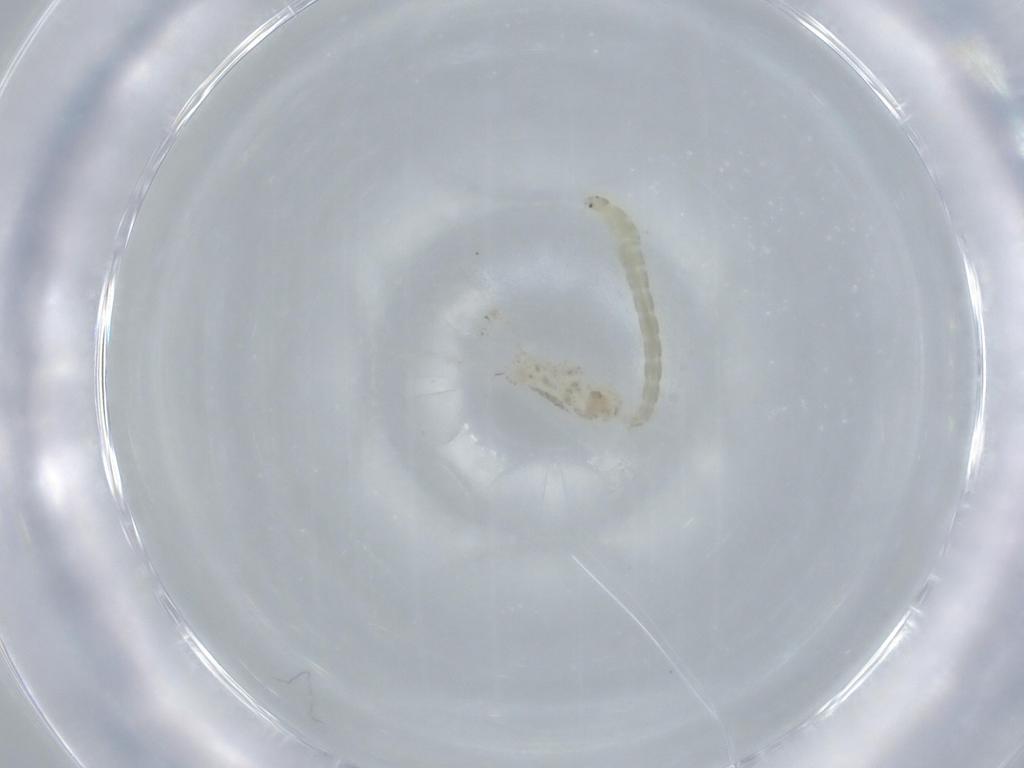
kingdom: Animalia
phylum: Arthropoda
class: Insecta
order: Diptera
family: Chironomidae
